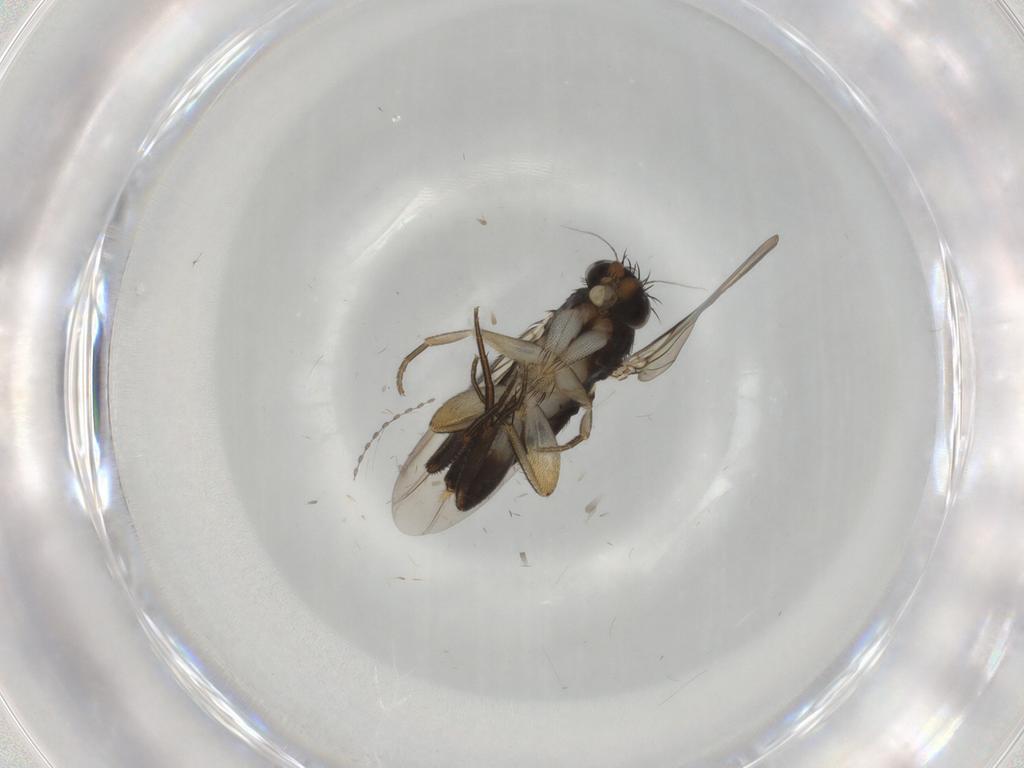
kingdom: Animalia
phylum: Arthropoda
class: Insecta
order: Diptera
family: Phoridae
